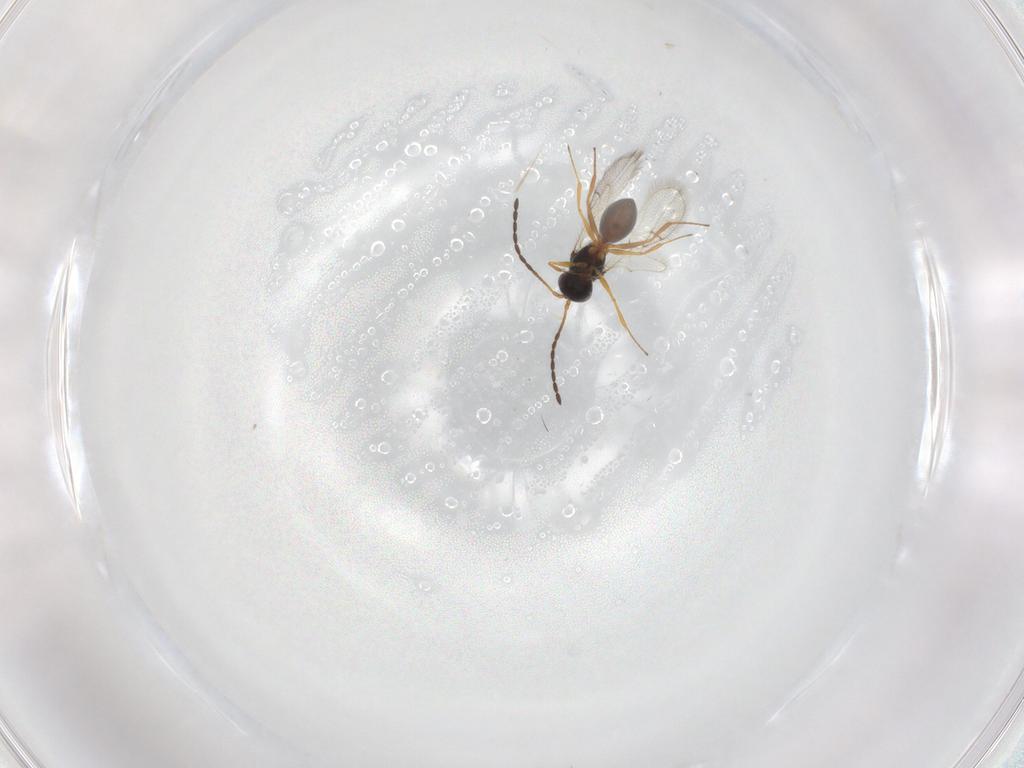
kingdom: Animalia
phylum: Arthropoda
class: Insecta
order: Hymenoptera
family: Figitidae
